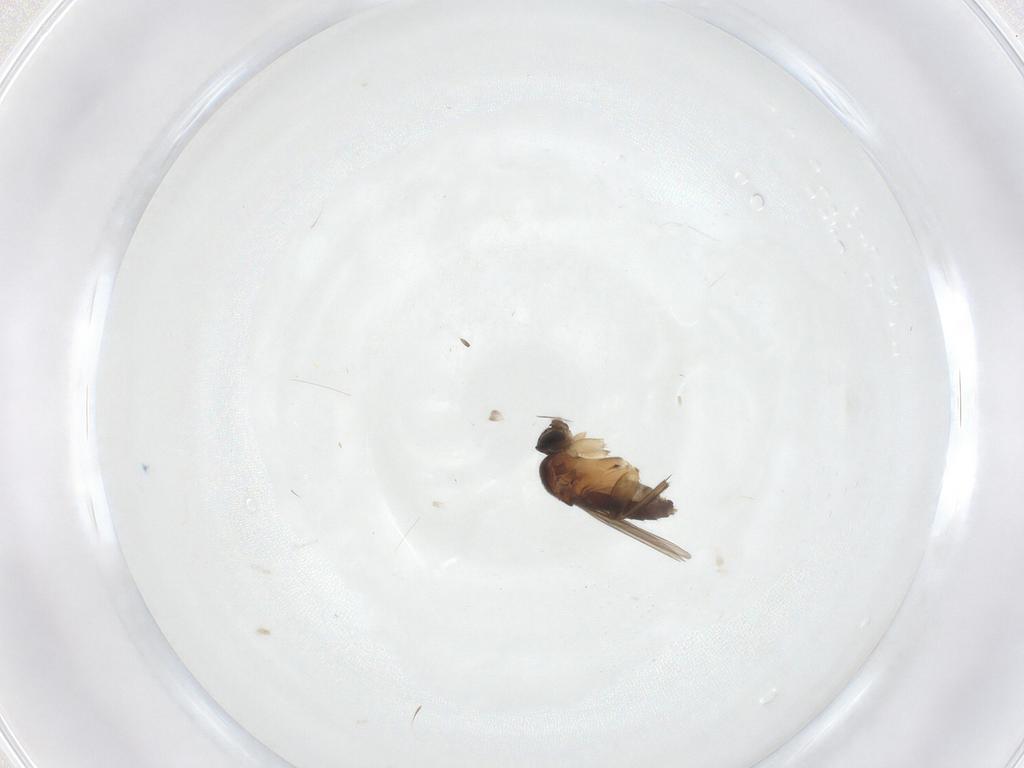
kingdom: Animalia
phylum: Arthropoda
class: Insecta
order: Diptera
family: Phoridae
